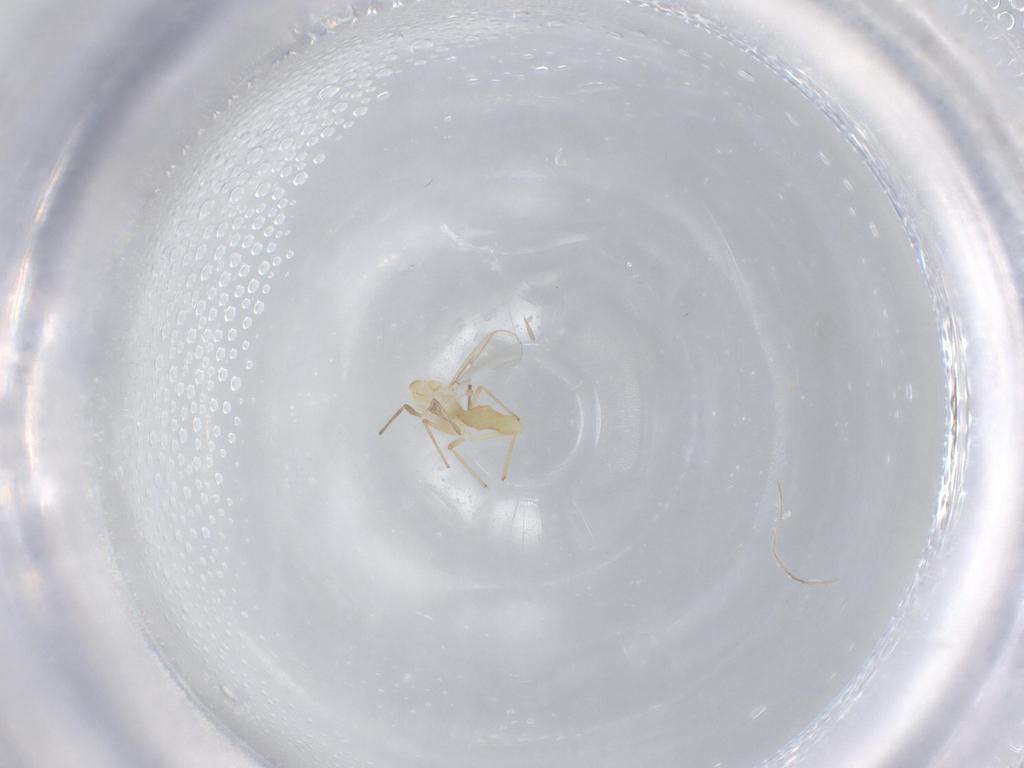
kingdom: Animalia
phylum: Arthropoda
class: Insecta
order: Diptera
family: Chironomidae
